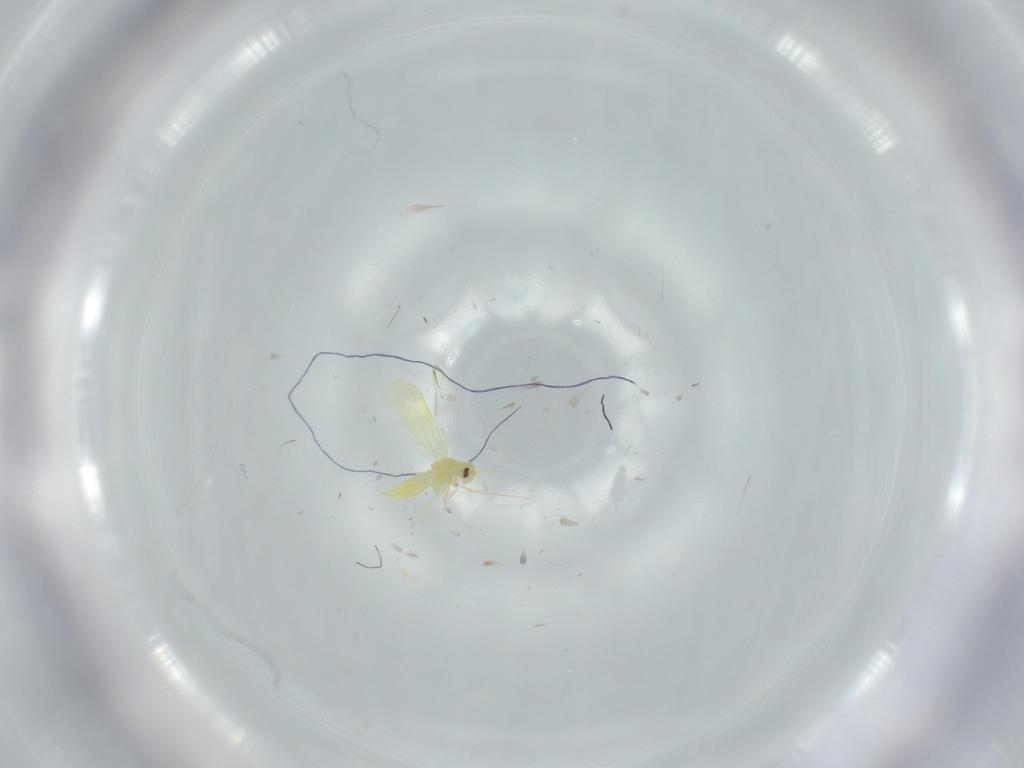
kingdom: Animalia
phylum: Arthropoda
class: Insecta
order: Hemiptera
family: Aleyrodidae
